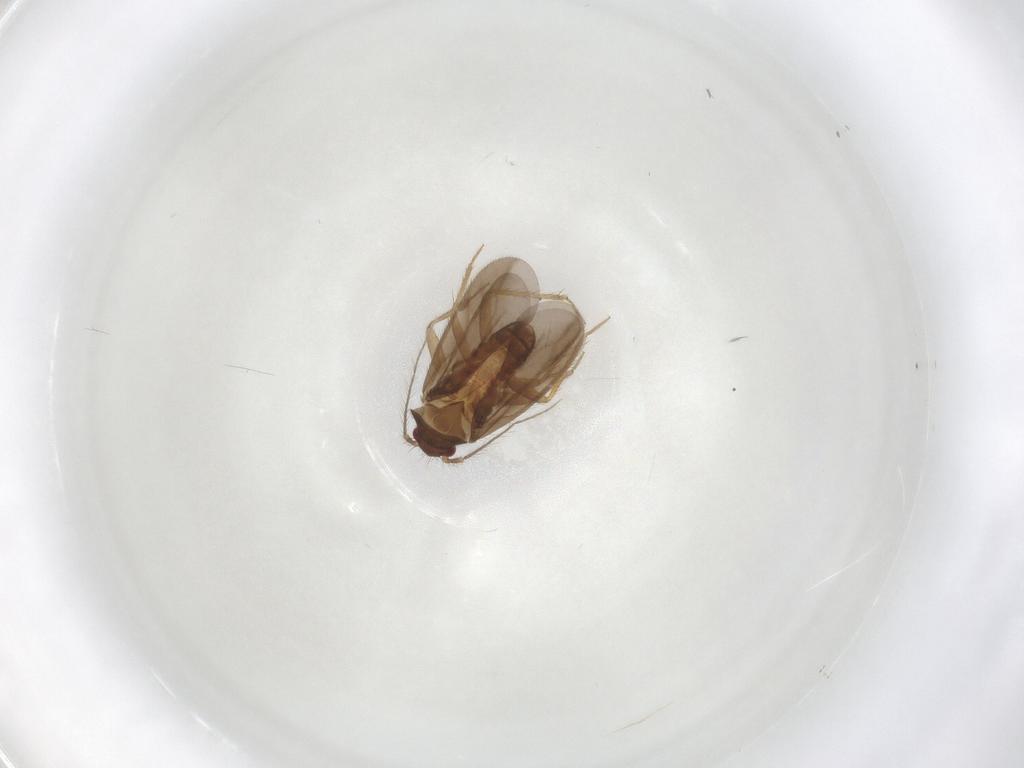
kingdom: Animalia
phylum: Arthropoda
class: Insecta
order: Hemiptera
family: Ceratocombidae
